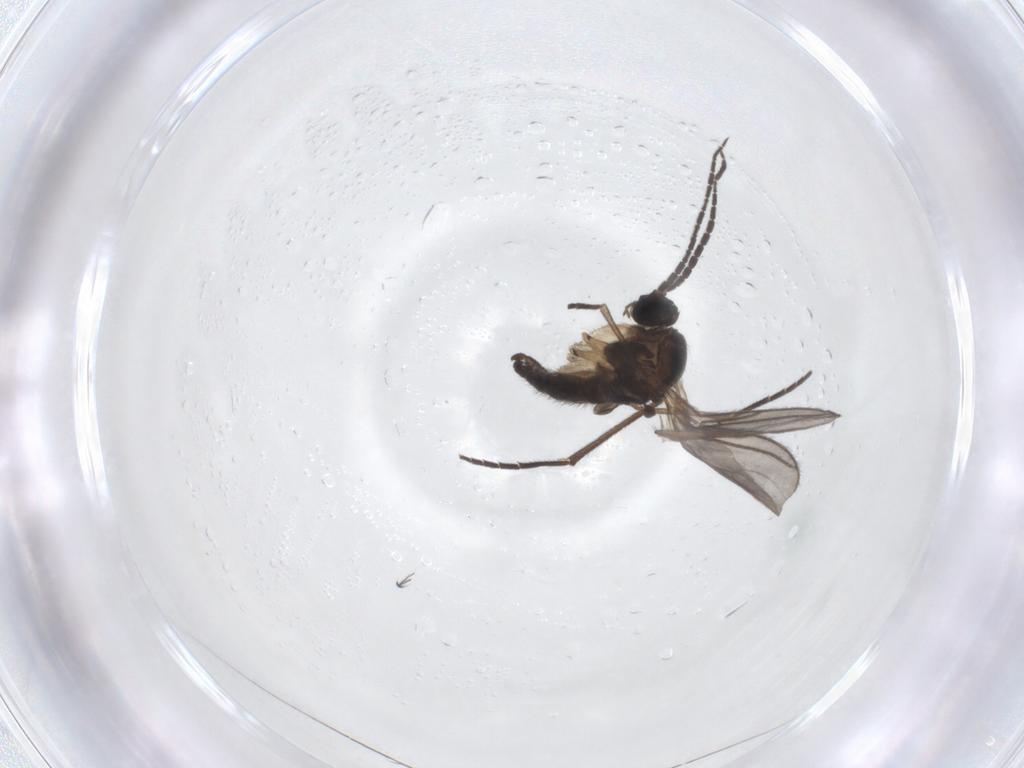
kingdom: Animalia
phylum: Arthropoda
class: Insecta
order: Diptera
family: Sciaridae
